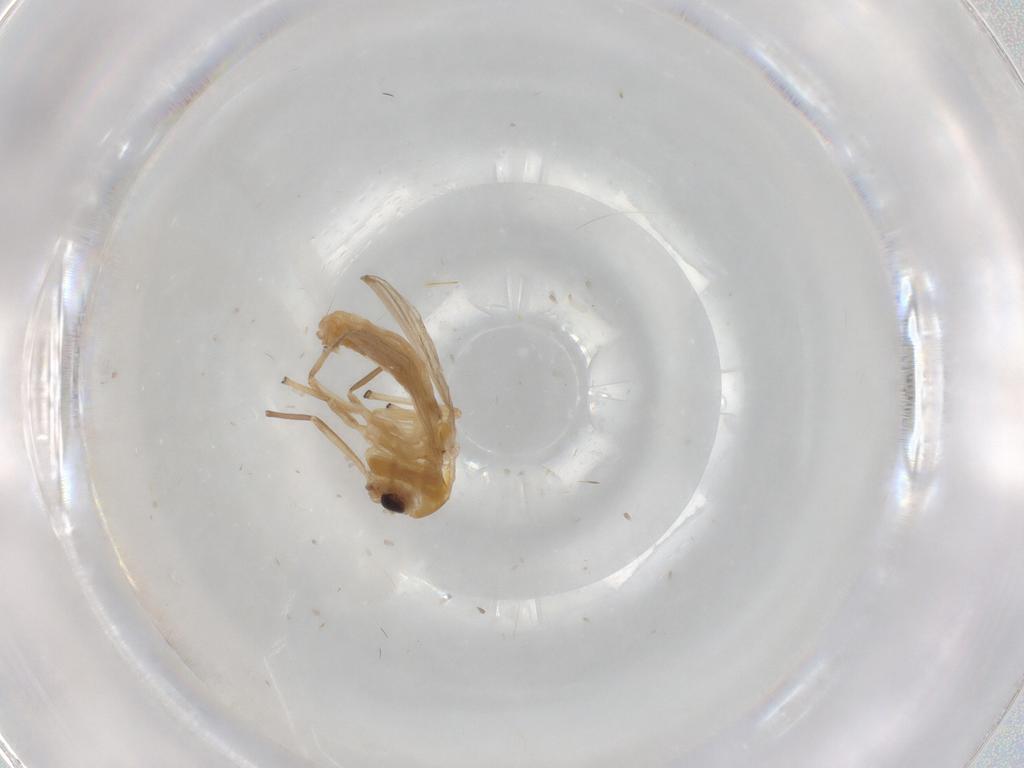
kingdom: Animalia
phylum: Arthropoda
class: Insecta
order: Diptera
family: Chironomidae
